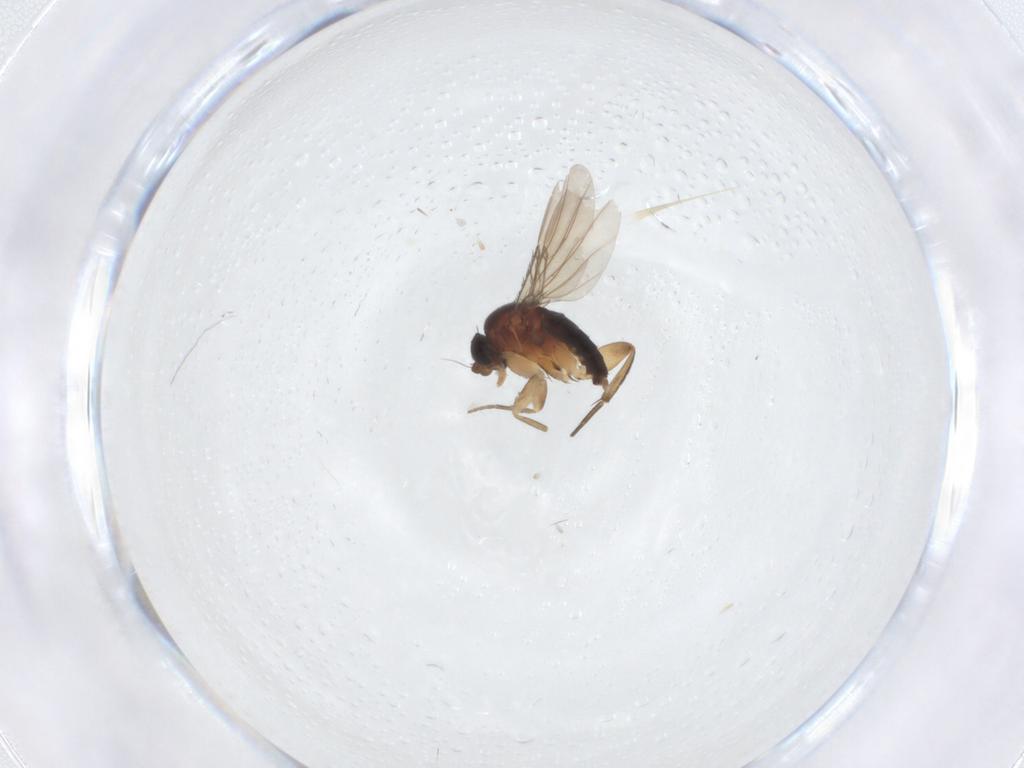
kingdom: Animalia
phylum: Arthropoda
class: Insecta
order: Diptera
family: Phoridae
